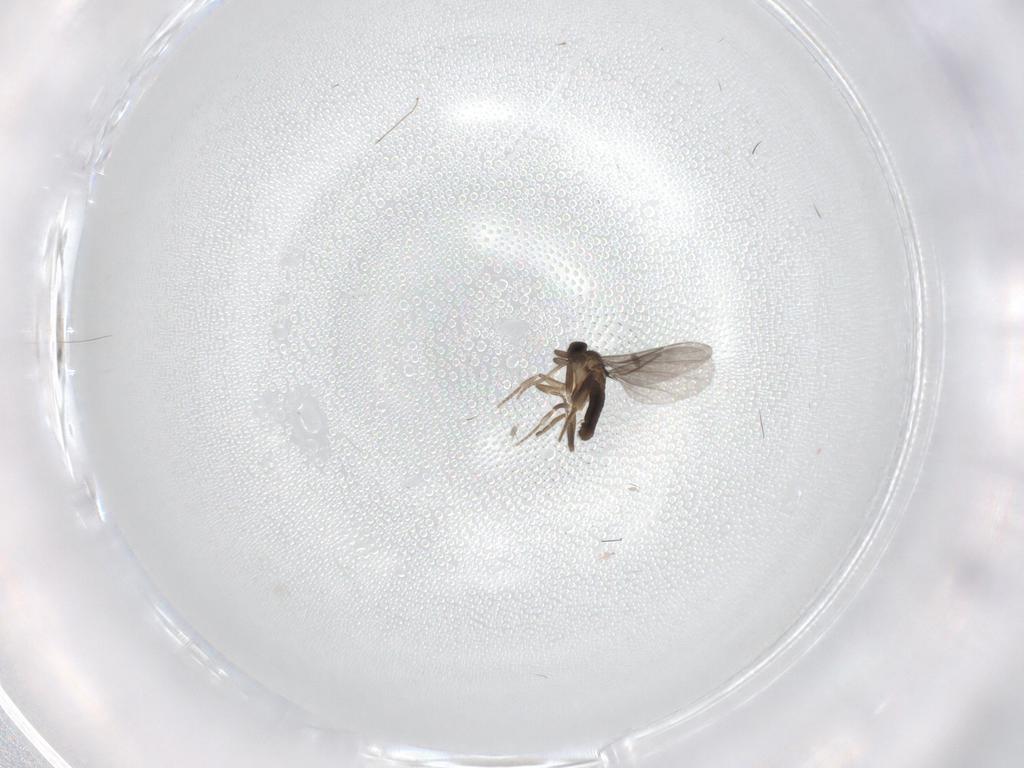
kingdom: Animalia
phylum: Arthropoda
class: Insecta
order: Diptera
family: Cecidomyiidae
